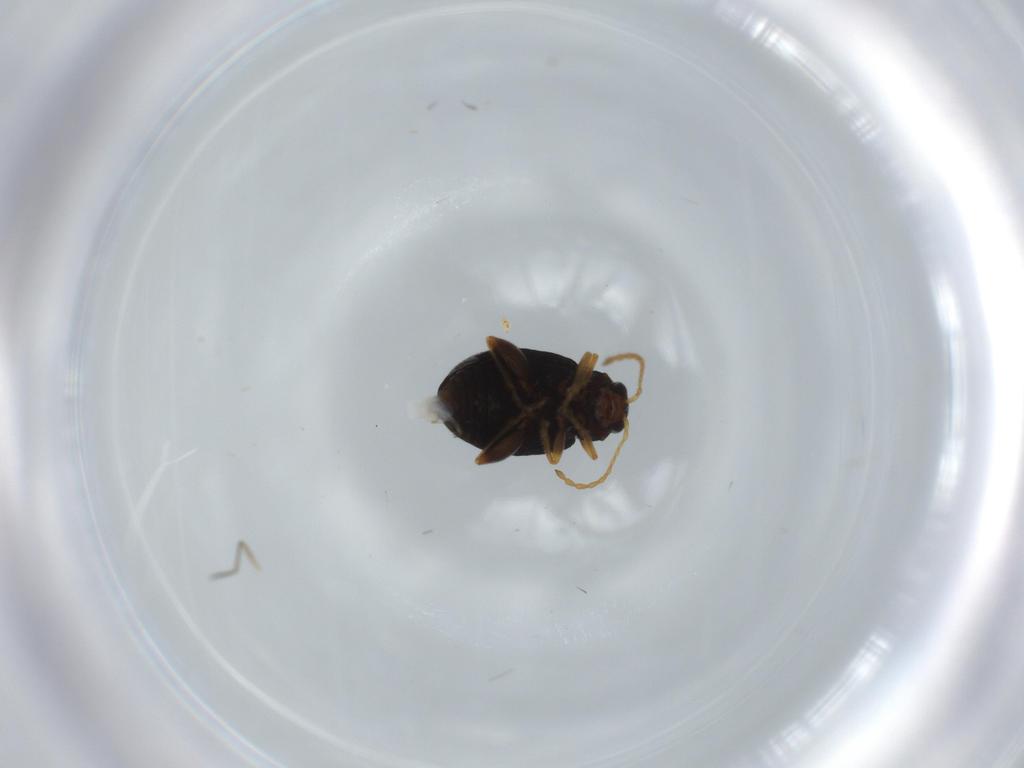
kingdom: Animalia
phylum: Arthropoda
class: Insecta
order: Coleoptera
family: Chrysomelidae
